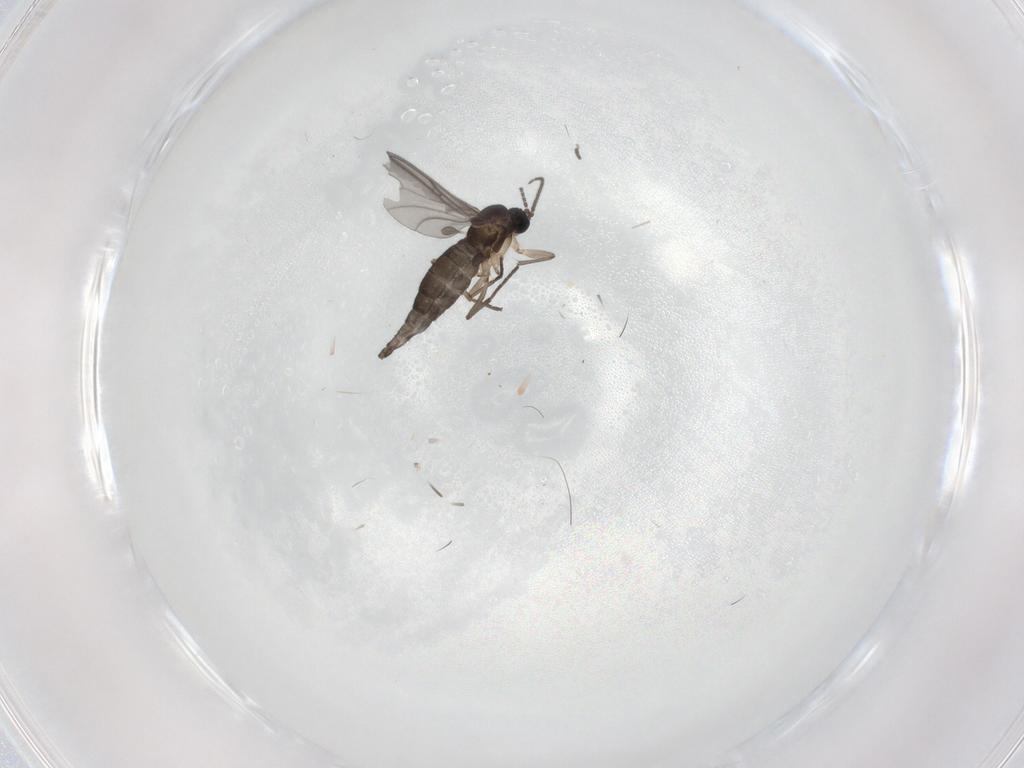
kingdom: Animalia
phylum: Arthropoda
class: Insecta
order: Diptera
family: Sciaridae
